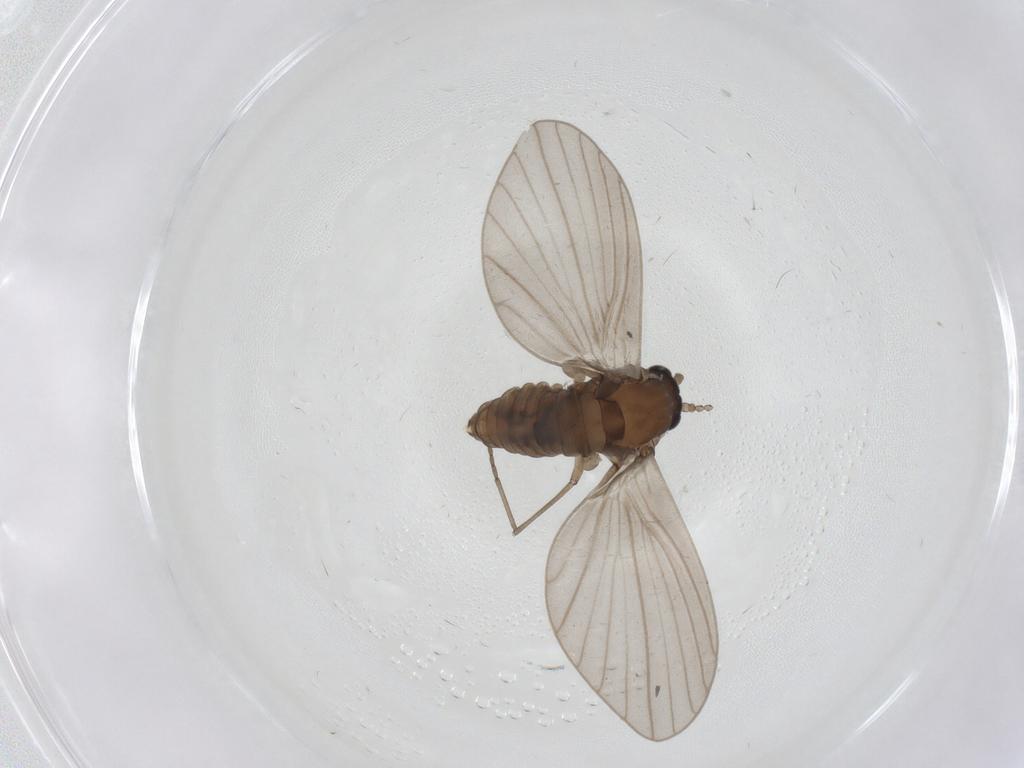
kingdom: Animalia
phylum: Arthropoda
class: Insecta
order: Diptera
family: Psychodidae
